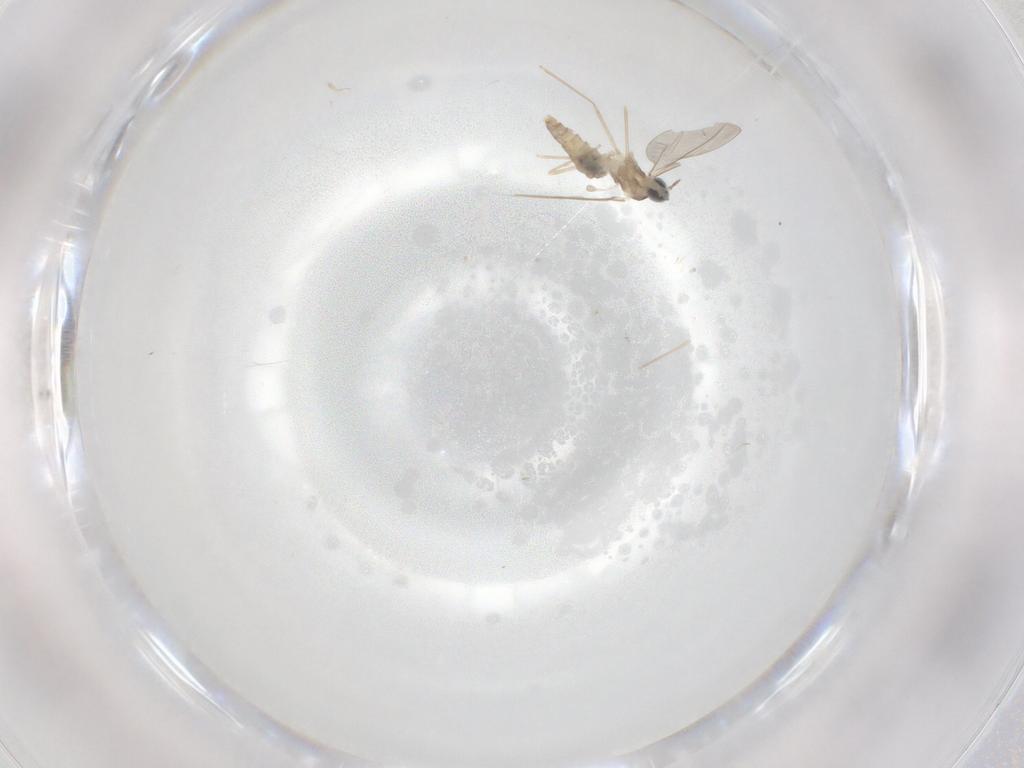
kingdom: Animalia
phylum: Arthropoda
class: Insecta
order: Diptera
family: Cecidomyiidae
